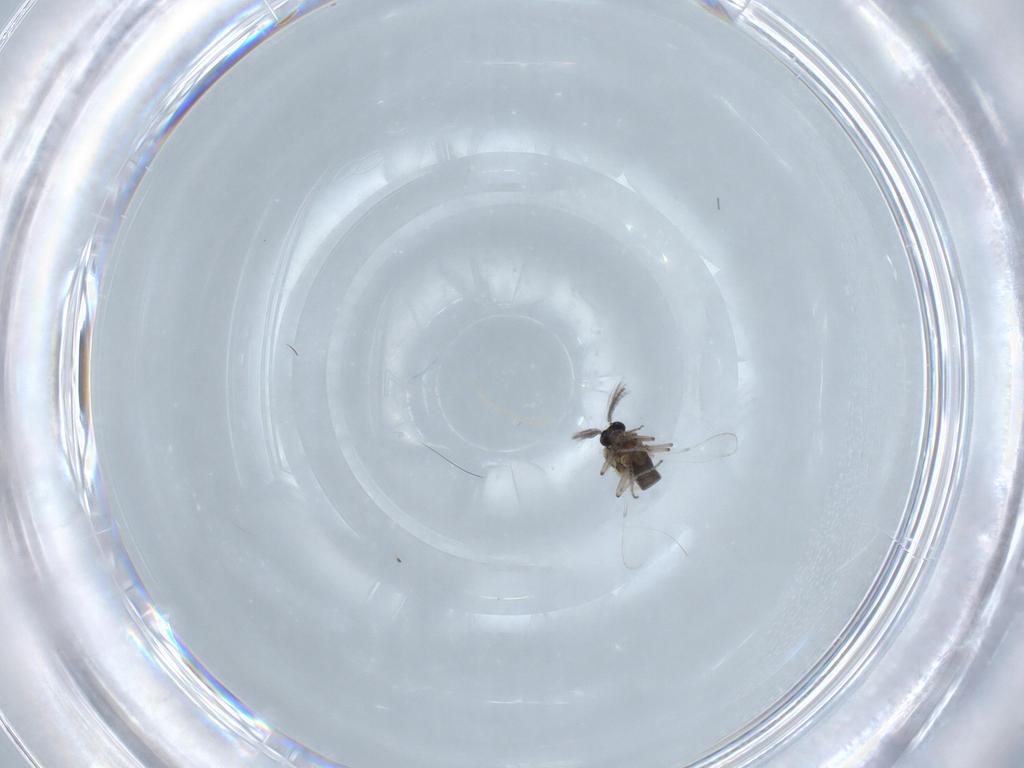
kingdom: Animalia
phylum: Arthropoda
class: Insecta
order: Diptera
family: Ceratopogonidae
